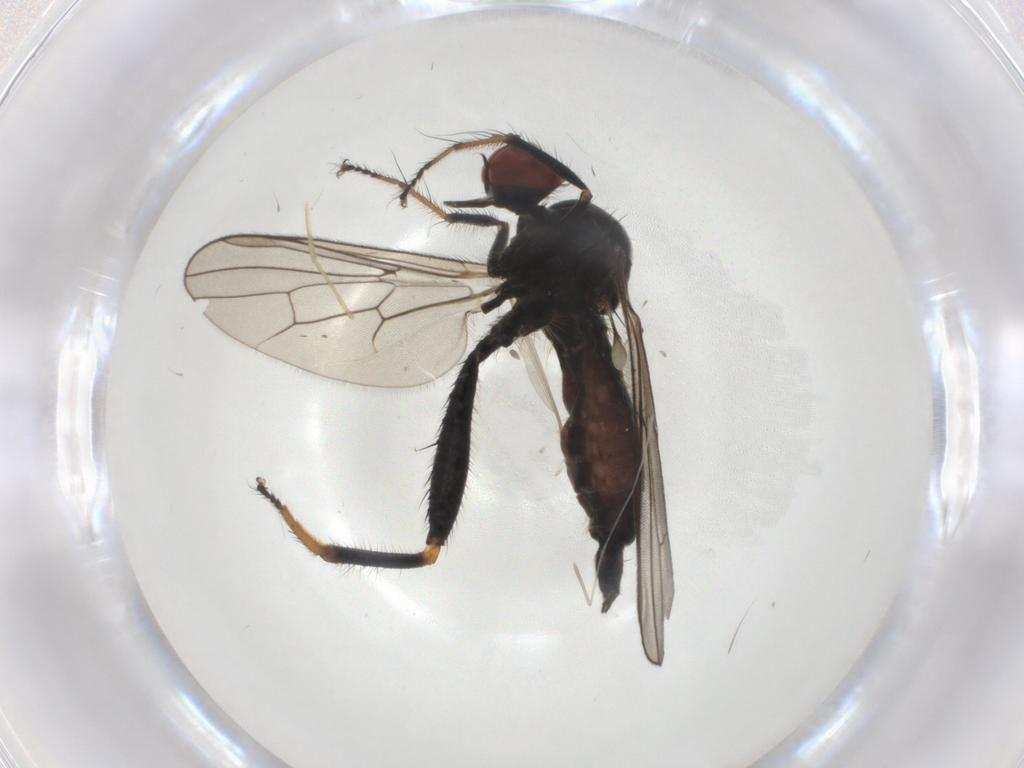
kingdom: Animalia
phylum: Arthropoda
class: Insecta
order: Diptera
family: Hybotidae
